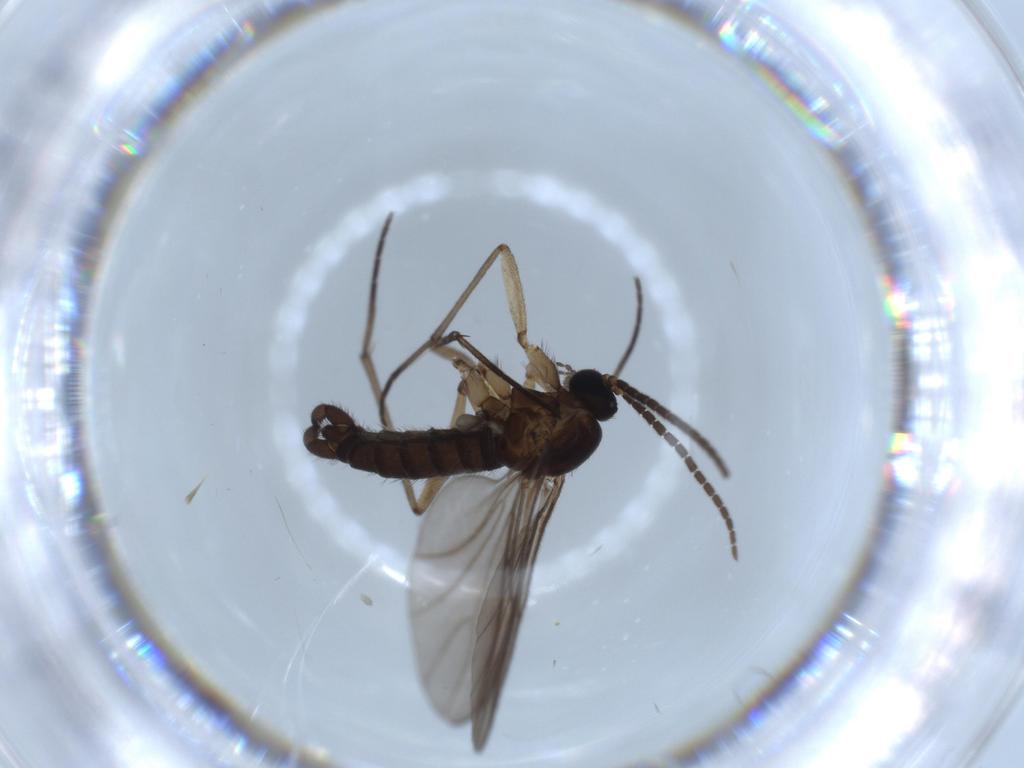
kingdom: Animalia
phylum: Arthropoda
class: Insecta
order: Diptera
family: Sciaridae
